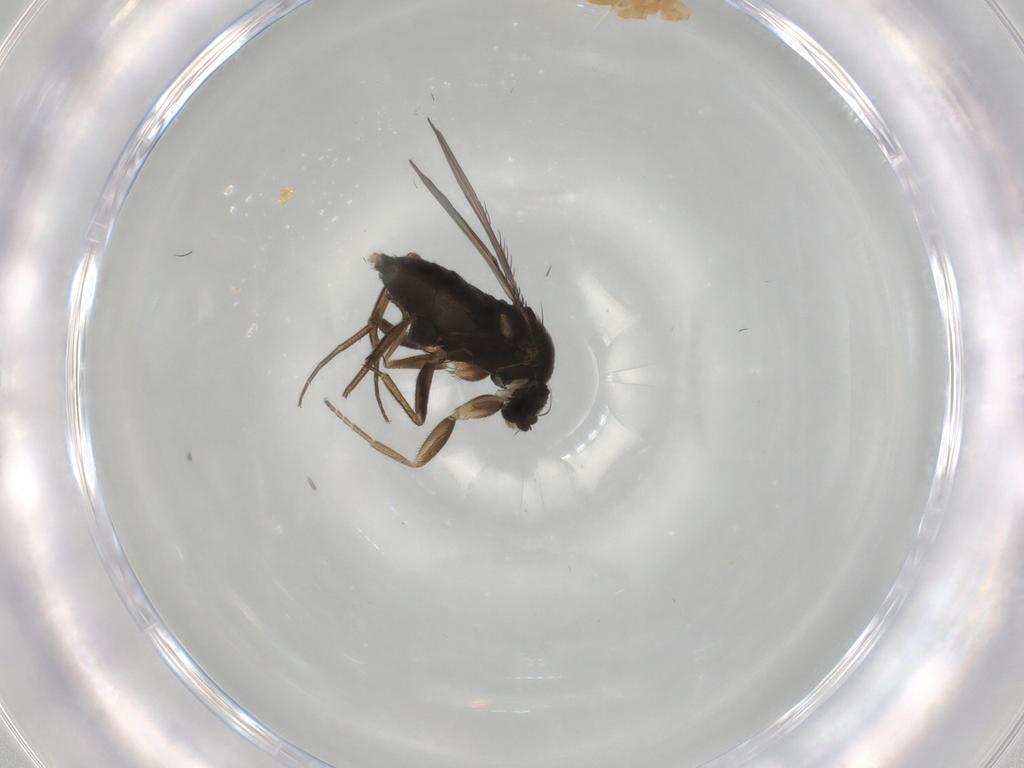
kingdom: Animalia
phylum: Arthropoda
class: Insecta
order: Diptera
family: Phoridae
